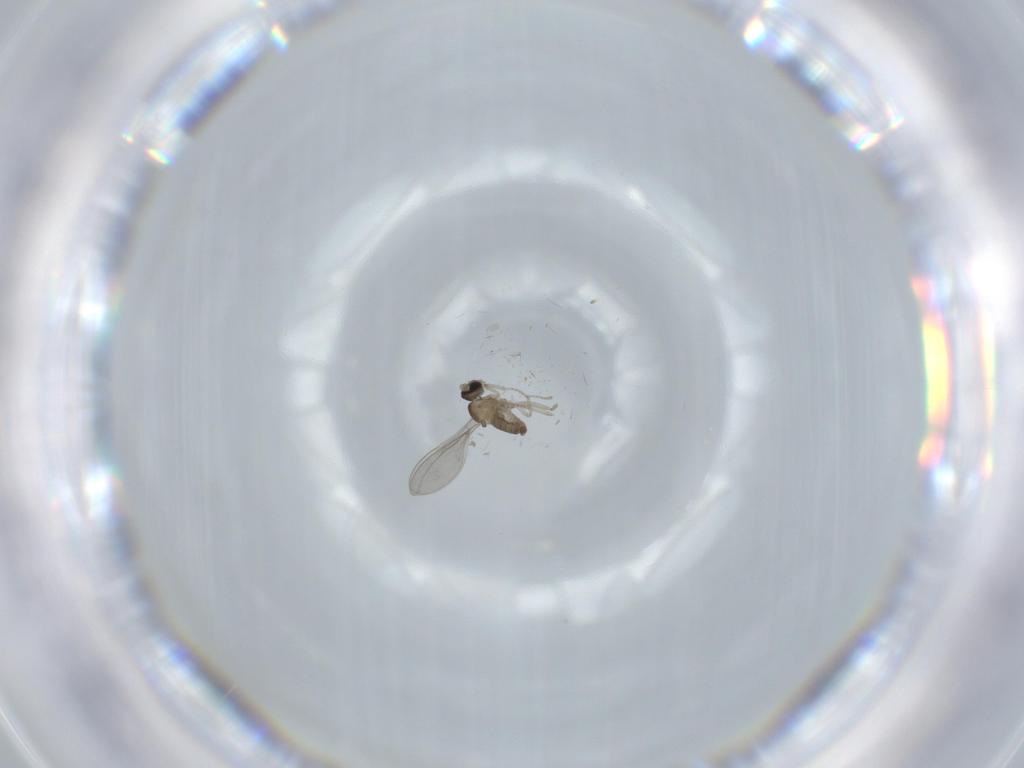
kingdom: Animalia
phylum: Arthropoda
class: Insecta
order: Diptera
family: Cecidomyiidae
